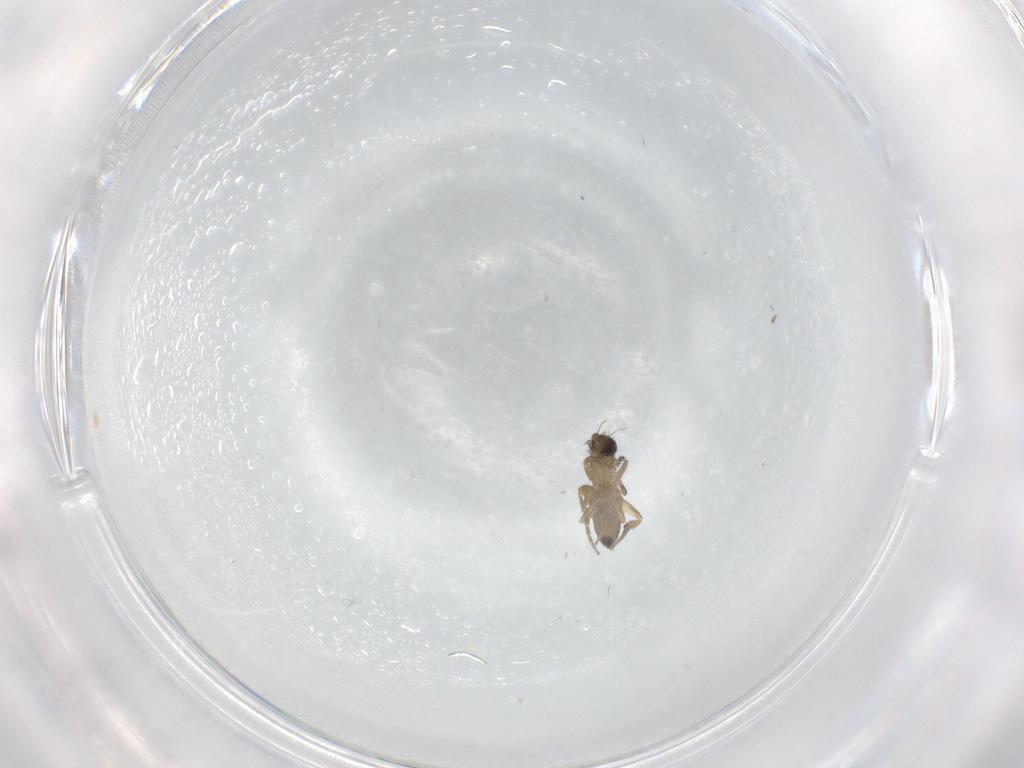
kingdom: Animalia
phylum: Arthropoda
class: Insecta
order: Diptera
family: Phoridae
